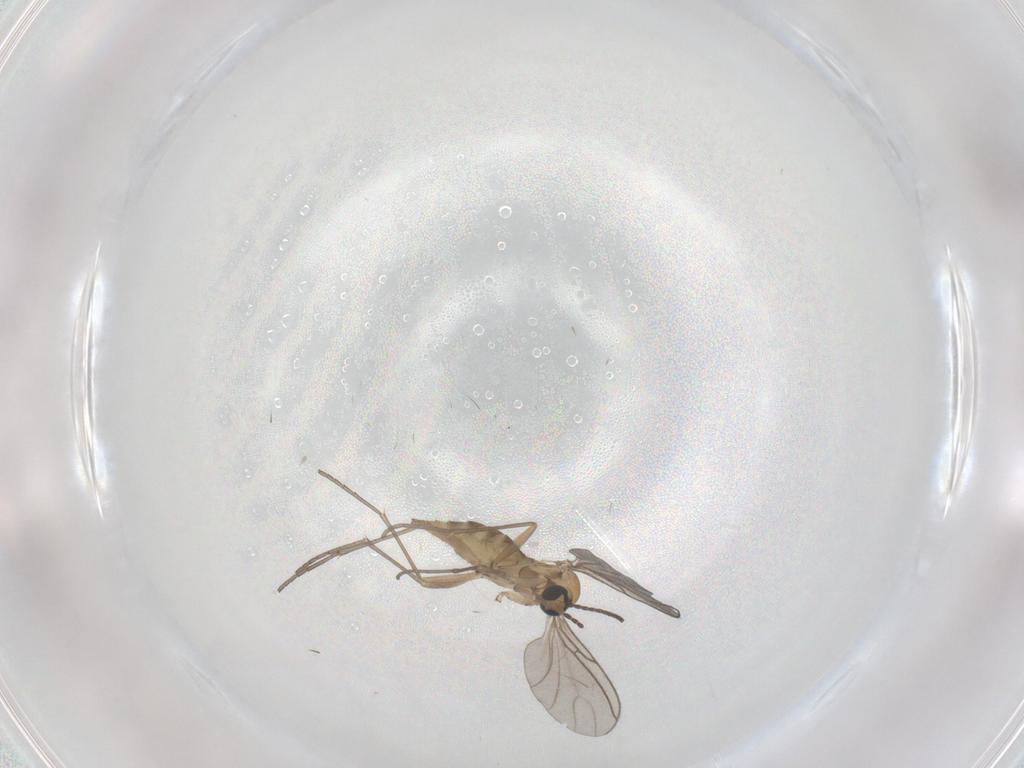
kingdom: Animalia
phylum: Arthropoda
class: Insecta
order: Diptera
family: Sciaridae
